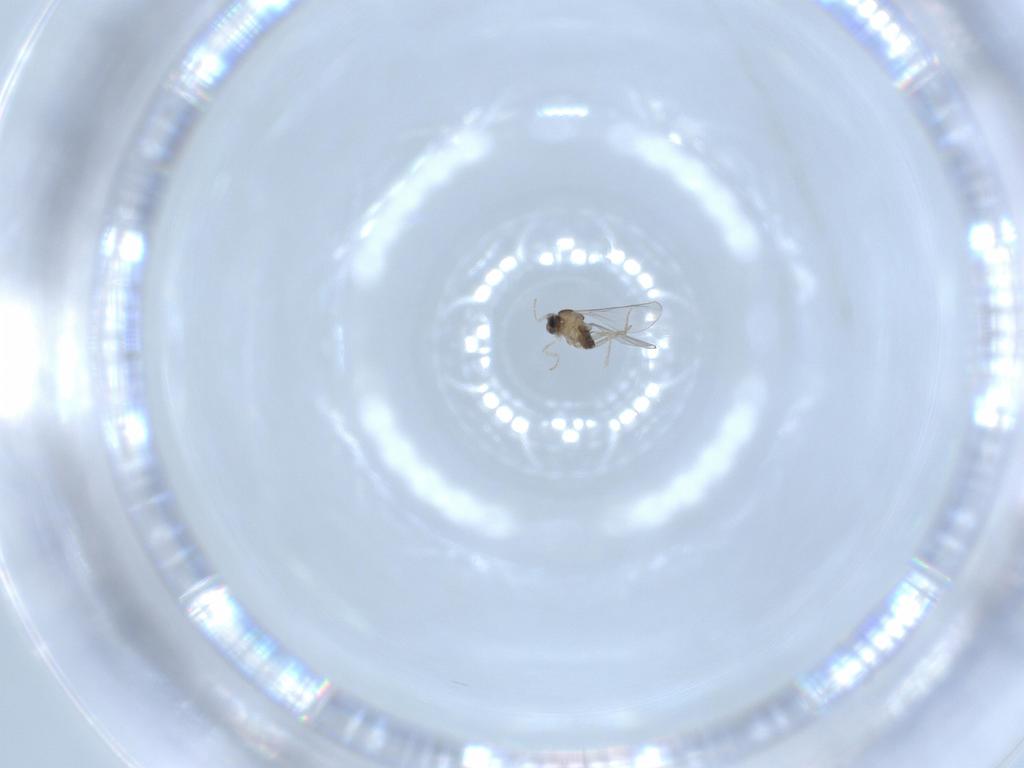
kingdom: Animalia
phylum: Arthropoda
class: Insecta
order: Diptera
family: Cecidomyiidae
